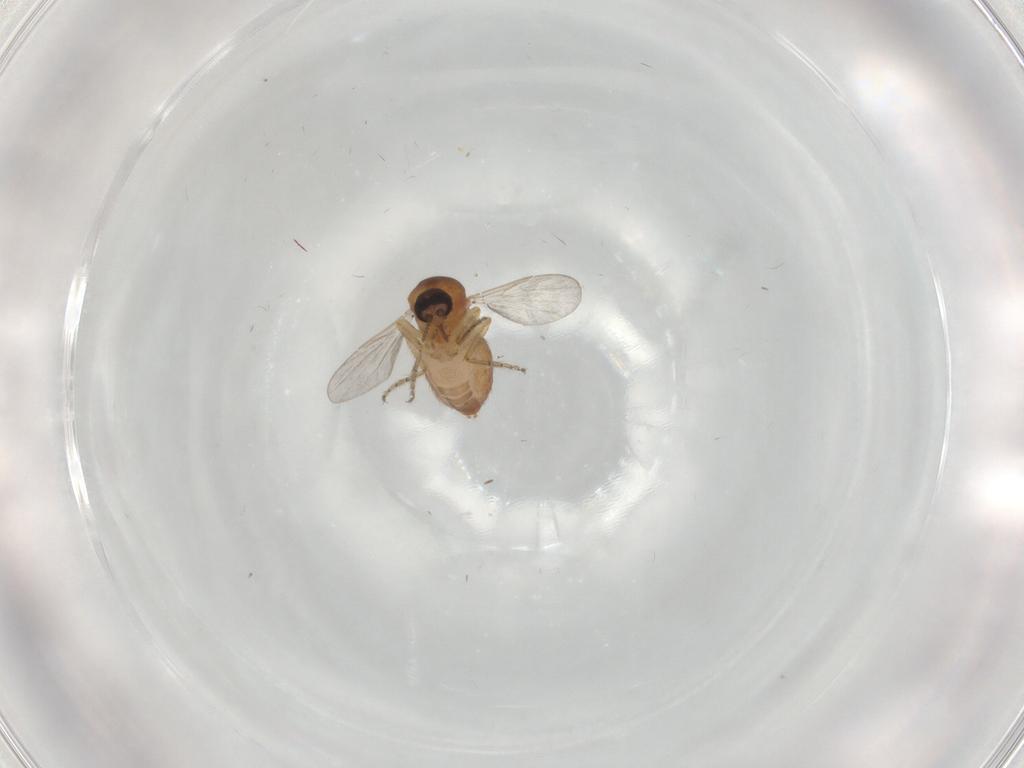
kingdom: Animalia
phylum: Arthropoda
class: Insecta
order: Diptera
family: Ceratopogonidae
